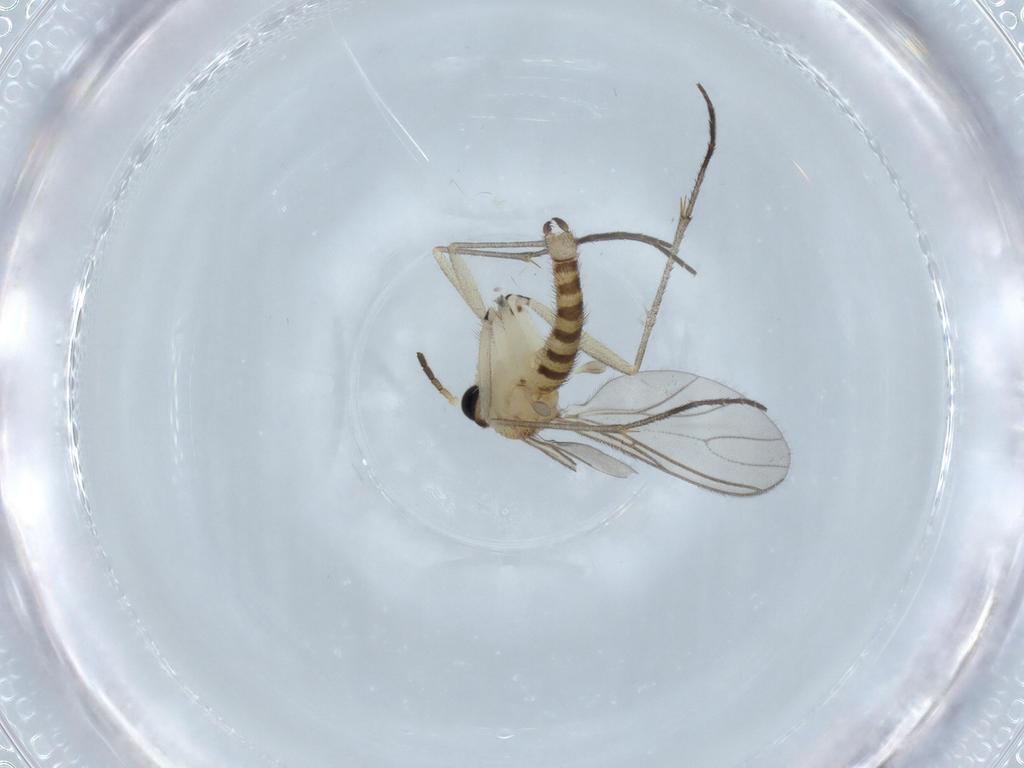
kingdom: Animalia
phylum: Arthropoda
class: Insecta
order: Diptera
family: Sciaridae
